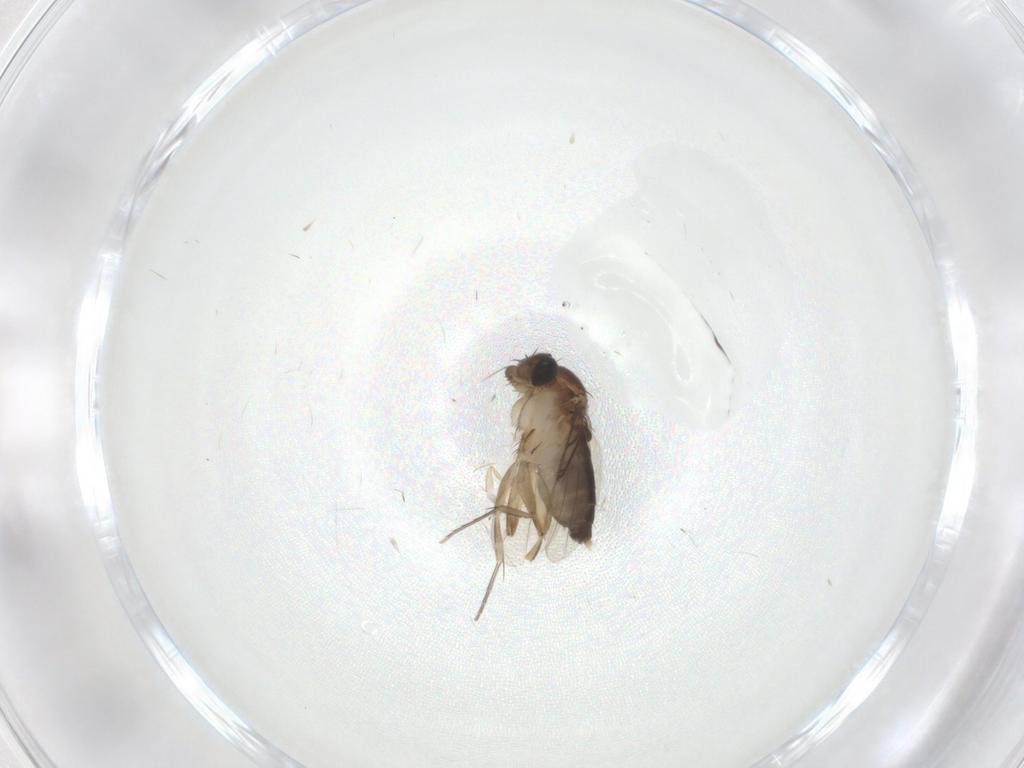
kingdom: Animalia
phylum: Arthropoda
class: Insecta
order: Diptera
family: Phoridae
